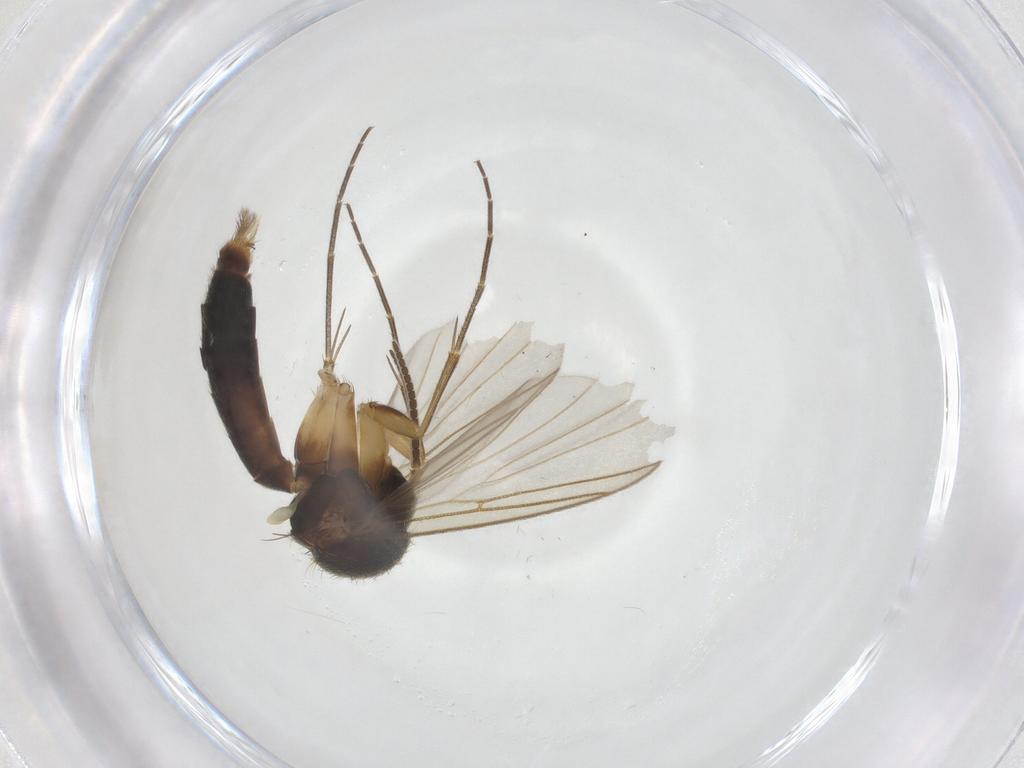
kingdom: Animalia
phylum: Arthropoda
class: Insecta
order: Diptera
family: Mycetophilidae
